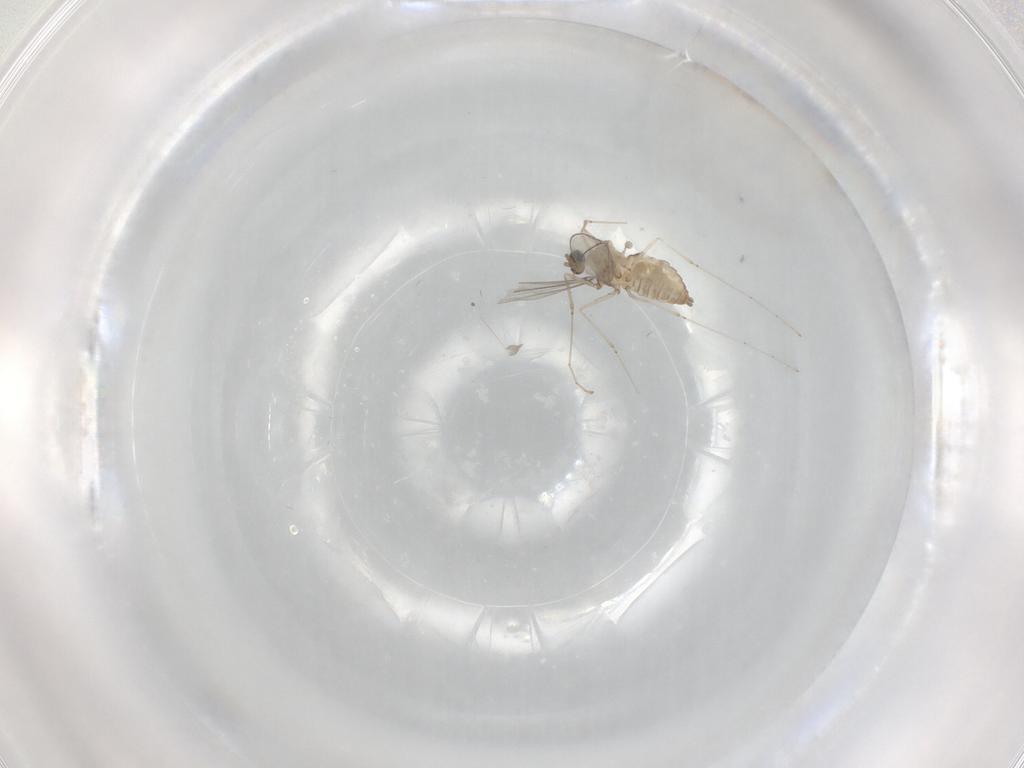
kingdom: Animalia
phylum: Arthropoda
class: Insecta
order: Diptera
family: Cecidomyiidae
